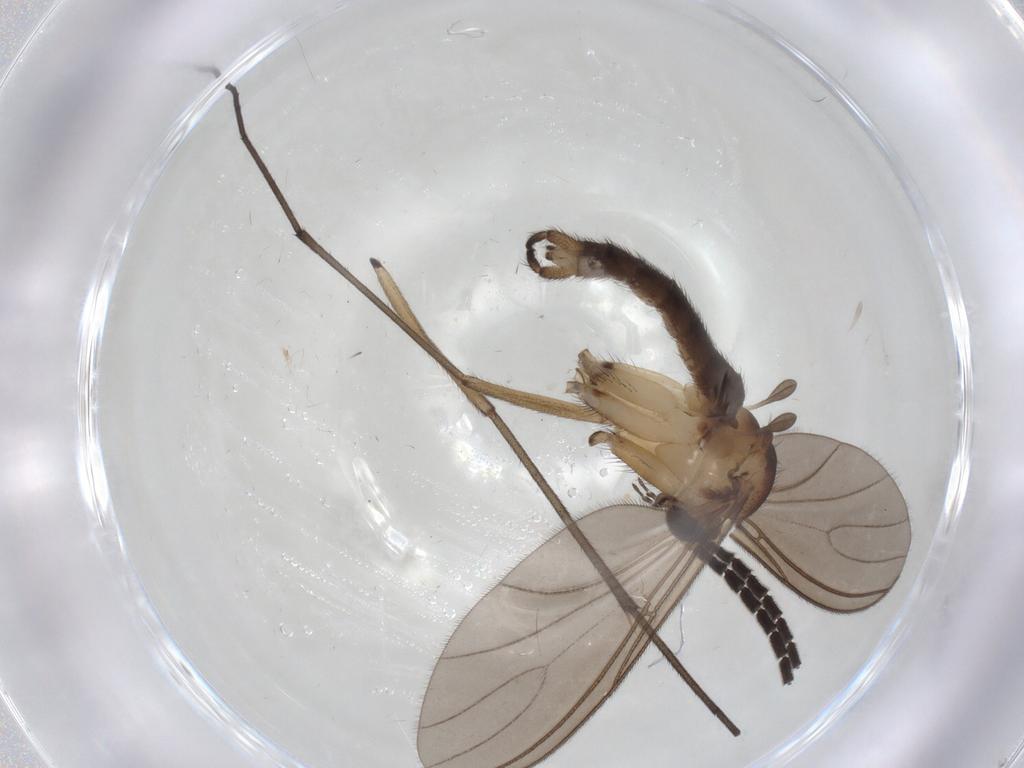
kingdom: Animalia
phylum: Arthropoda
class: Insecta
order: Diptera
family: Sciaridae
